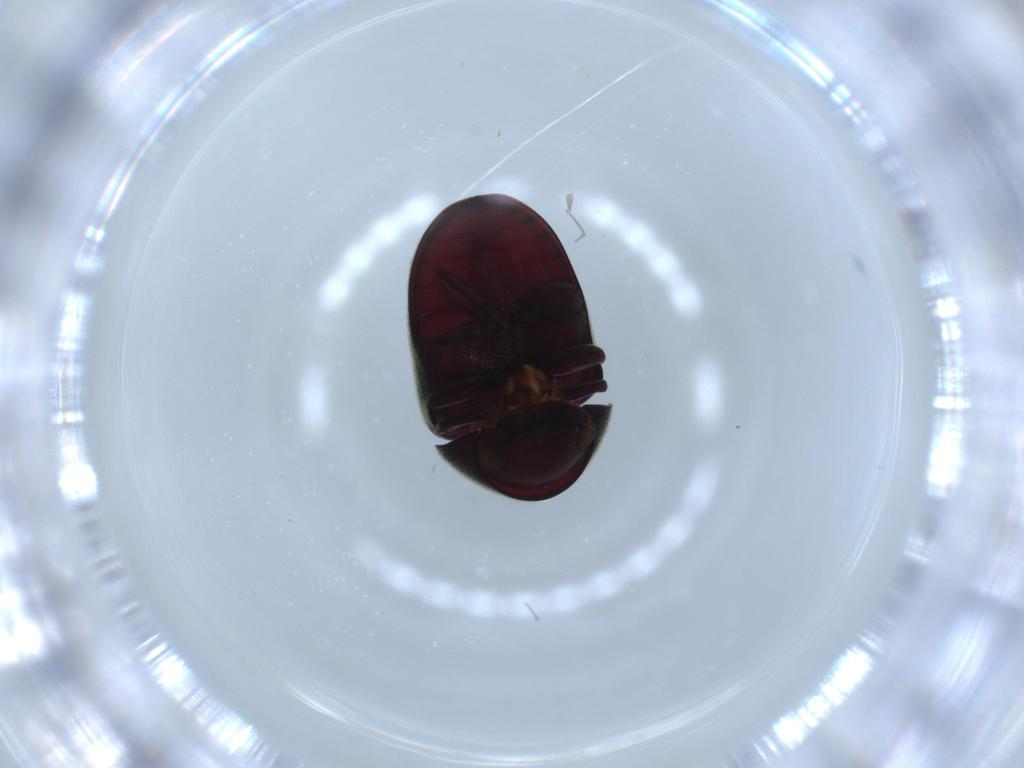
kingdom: Animalia
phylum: Arthropoda
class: Insecta
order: Coleoptera
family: Ptinidae
